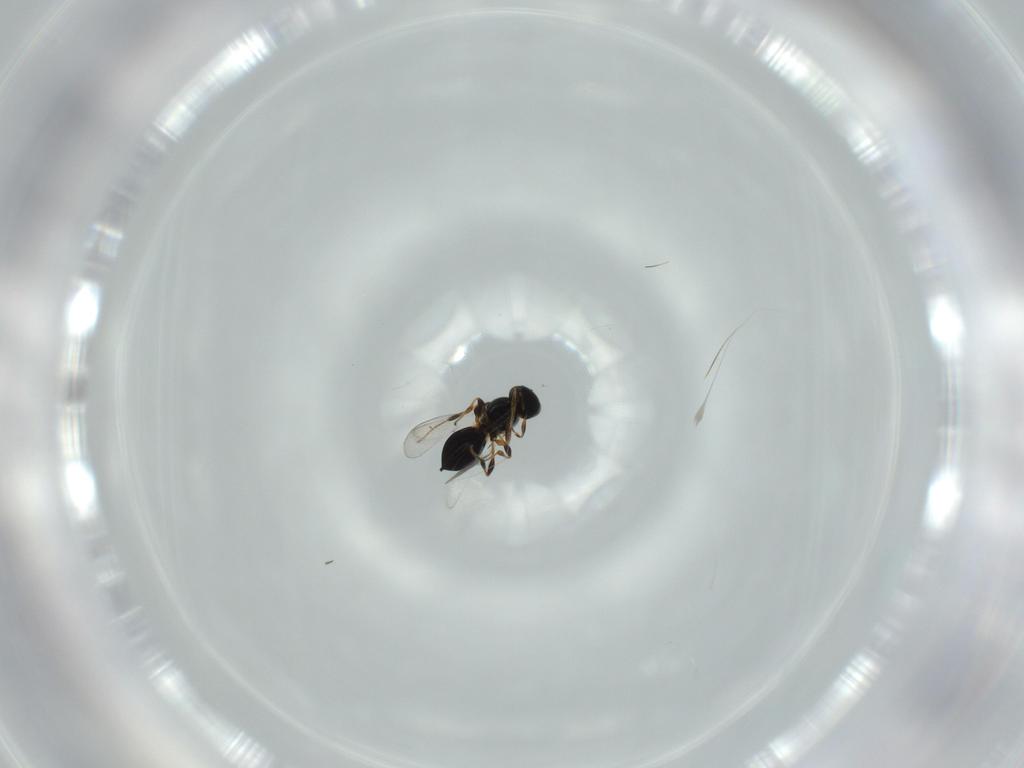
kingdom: Animalia
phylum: Arthropoda
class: Insecta
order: Hymenoptera
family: Platygastridae
